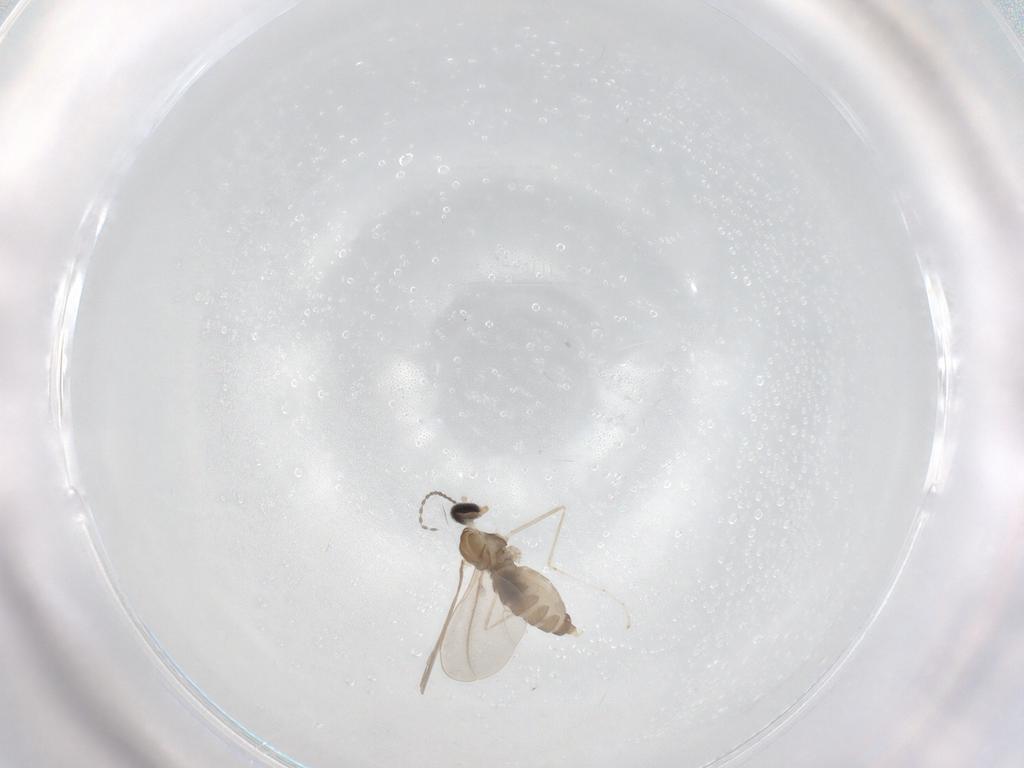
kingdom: Animalia
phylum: Arthropoda
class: Insecta
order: Diptera
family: Cecidomyiidae
